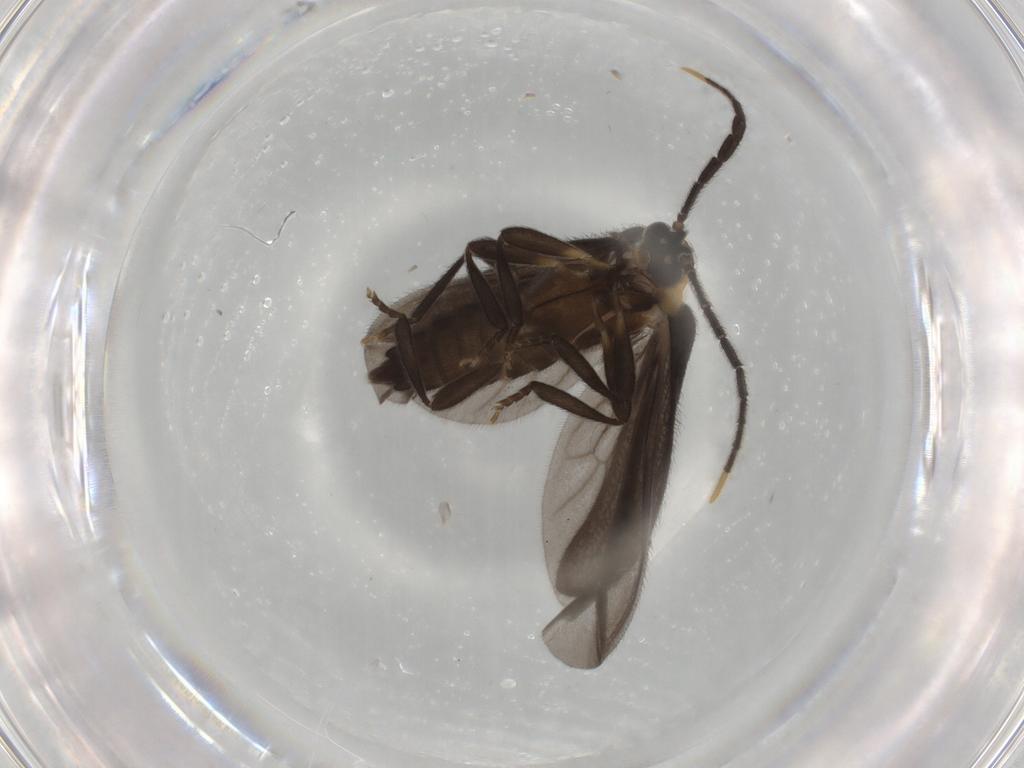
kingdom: Animalia
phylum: Arthropoda
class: Insecta
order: Coleoptera
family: Lycidae
